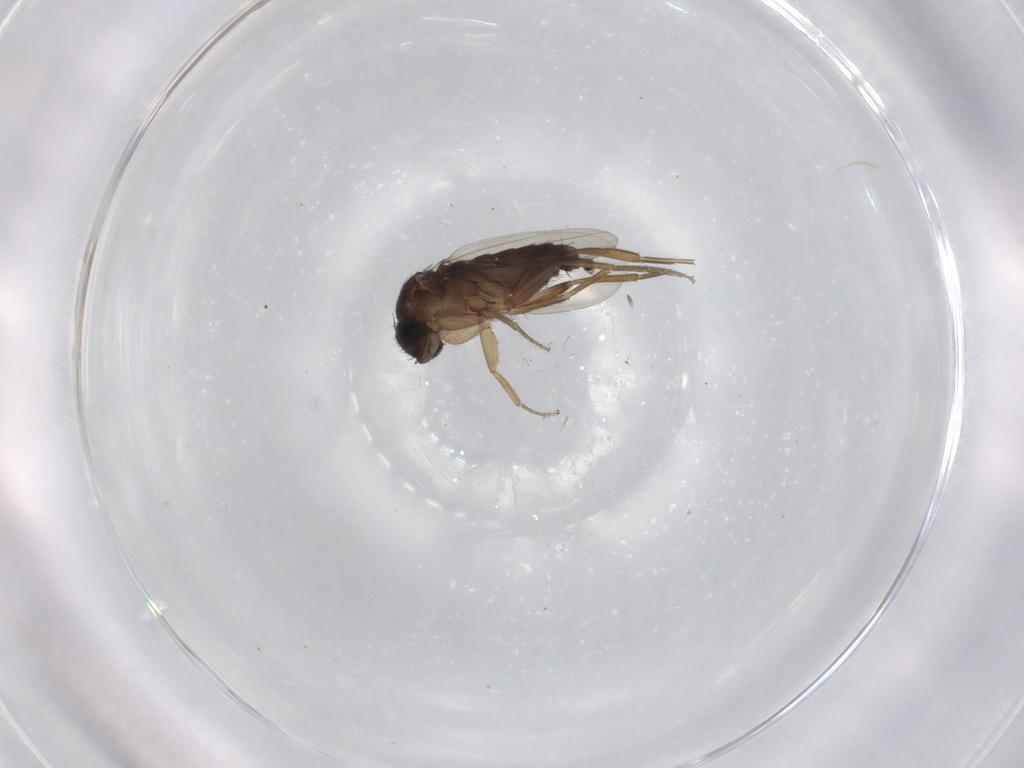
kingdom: Animalia
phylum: Arthropoda
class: Insecta
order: Diptera
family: Phoridae
